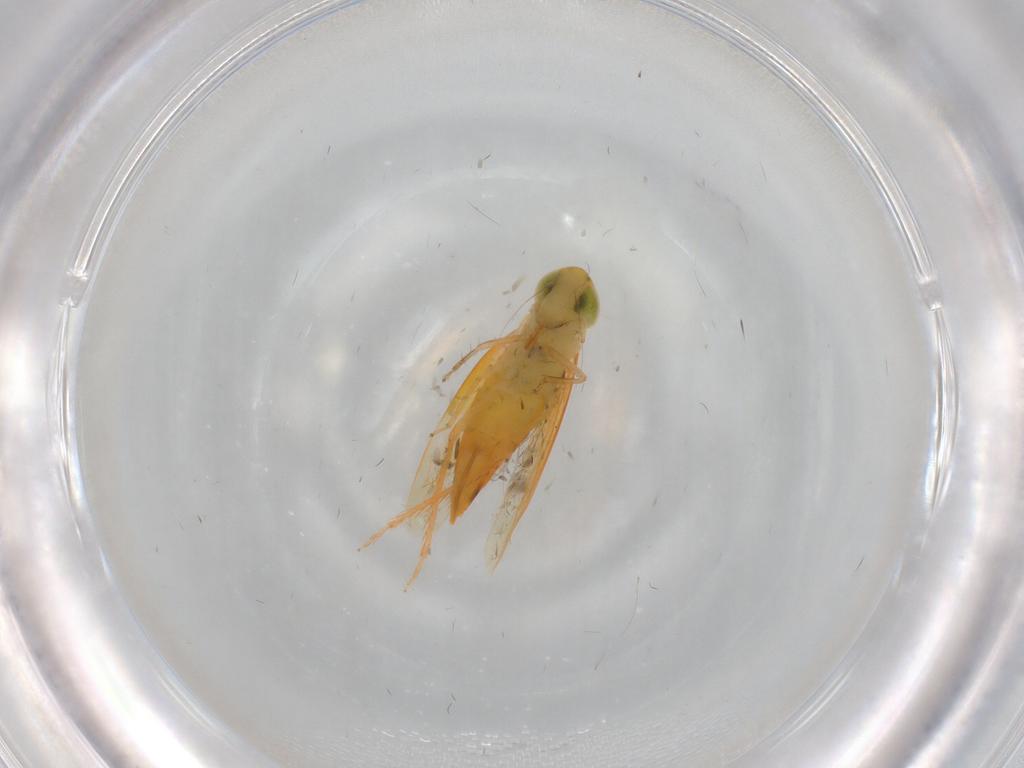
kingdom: Animalia
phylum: Arthropoda
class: Insecta
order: Hemiptera
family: Cicadellidae
